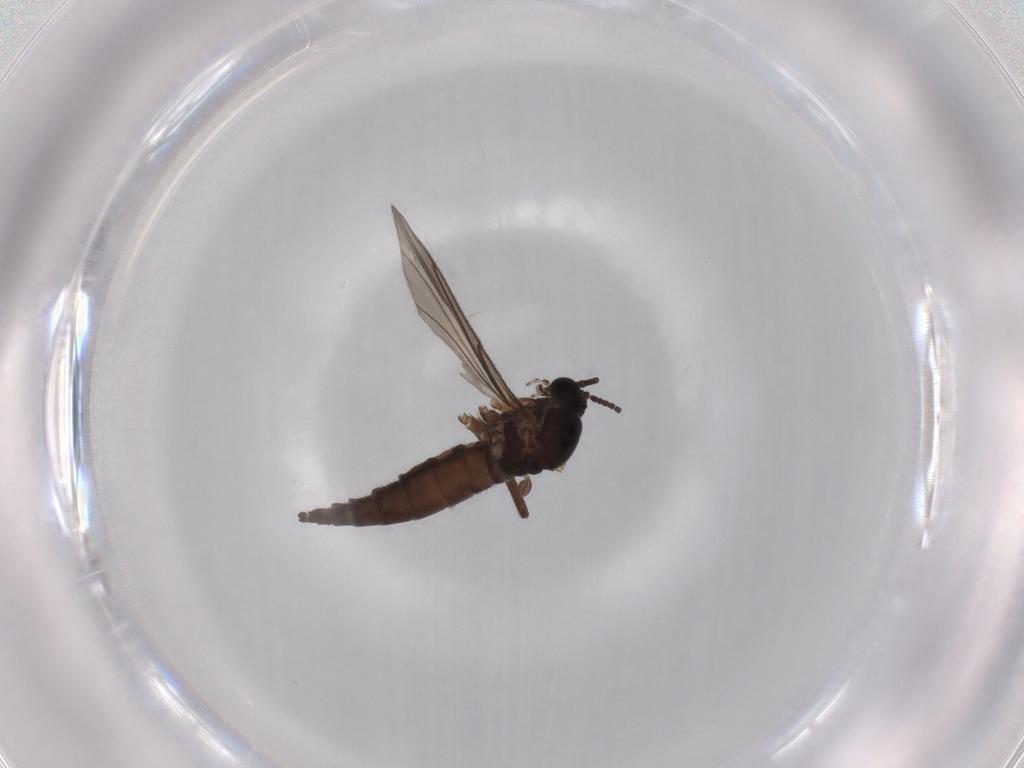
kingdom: Animalia
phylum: Arthropoda
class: Insecta
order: Diptera
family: Sciaridae
